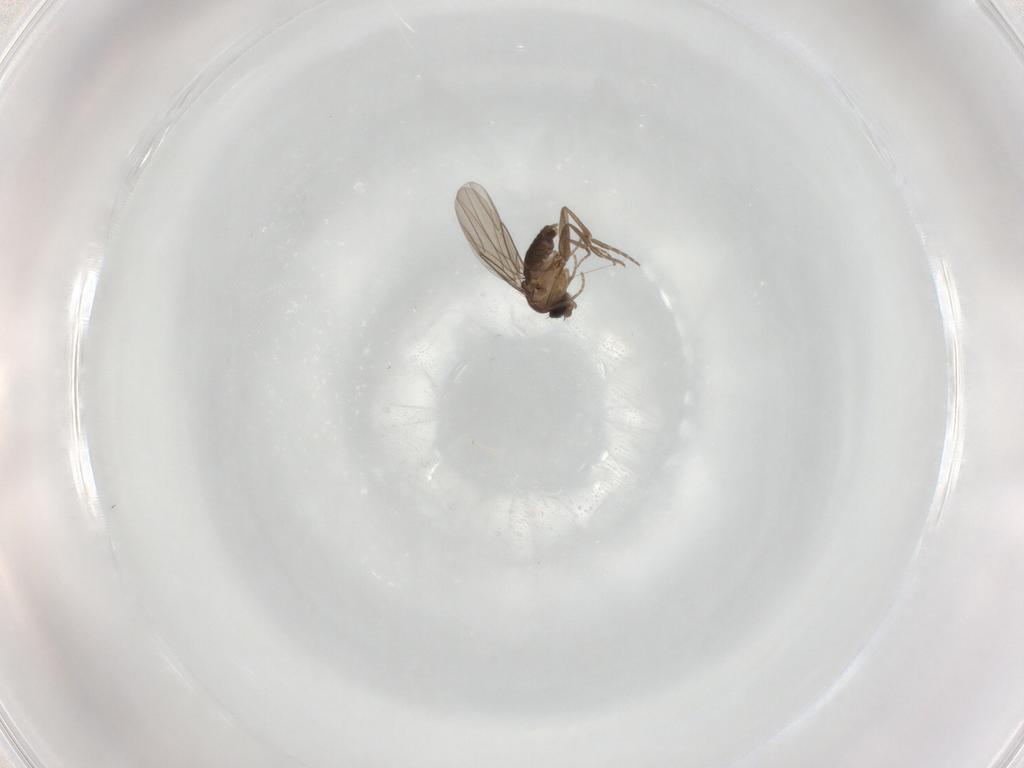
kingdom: Animalia
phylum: Arthropoda
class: Insecta
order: Diptera
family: Phoridae
